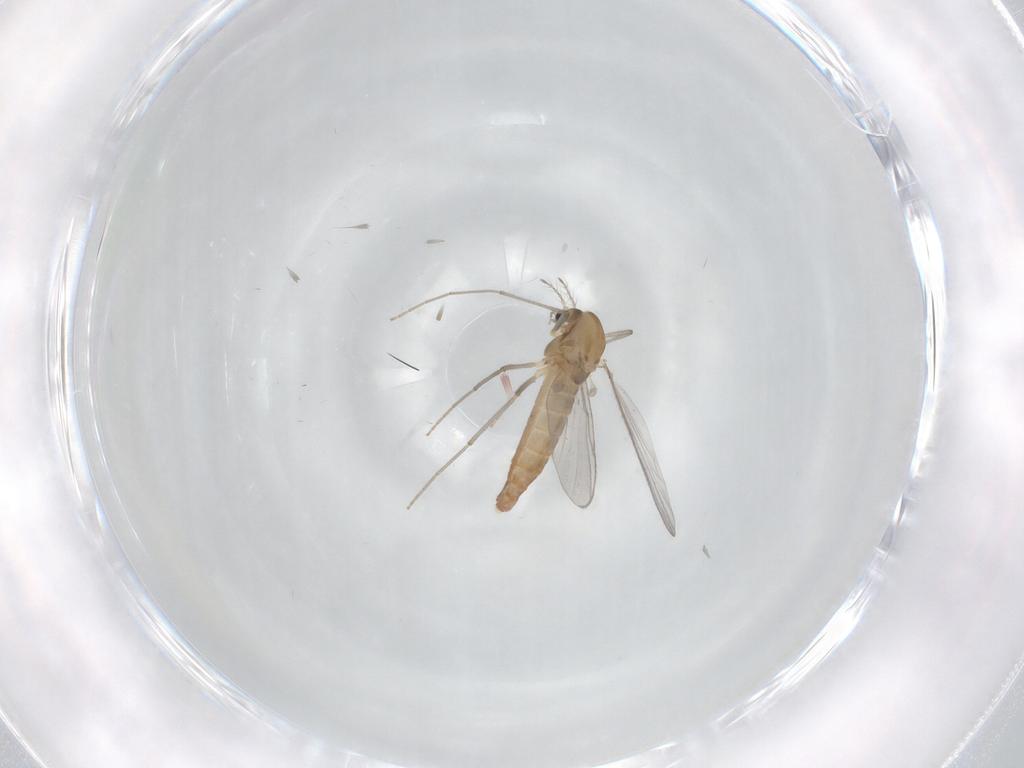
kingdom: Animalia
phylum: Arthropoda
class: Insecta
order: Diptera
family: Chironomidae
